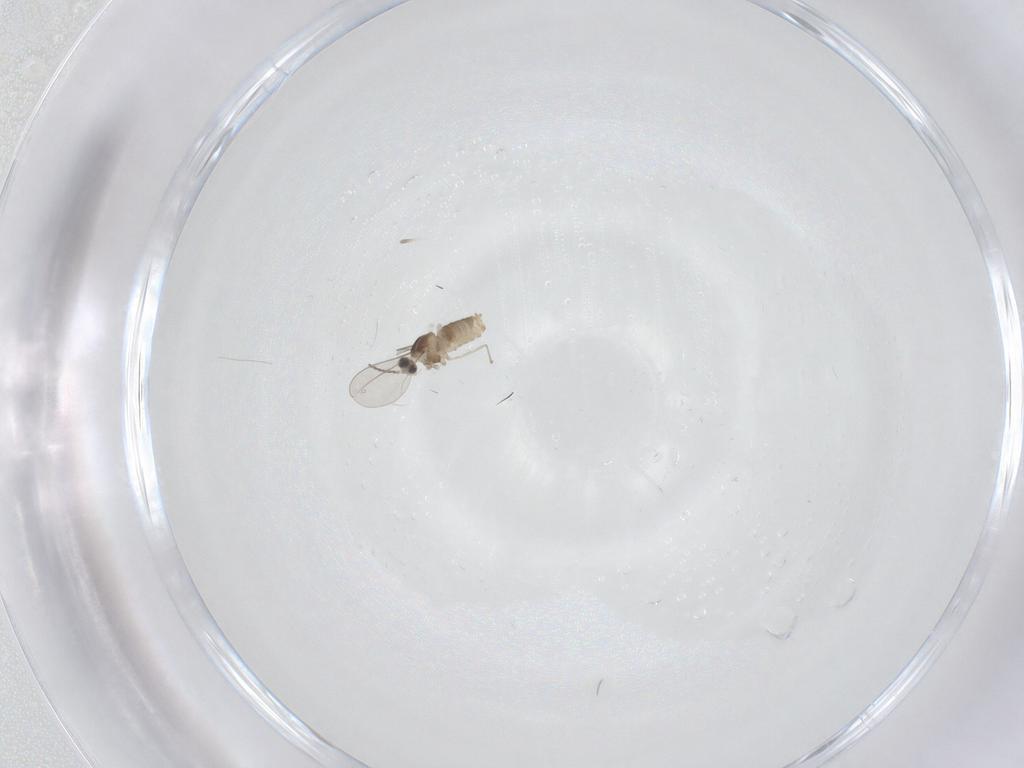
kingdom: Animalia
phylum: Arthropoda
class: Insecta
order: Diptera
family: Cecidomyiidae
